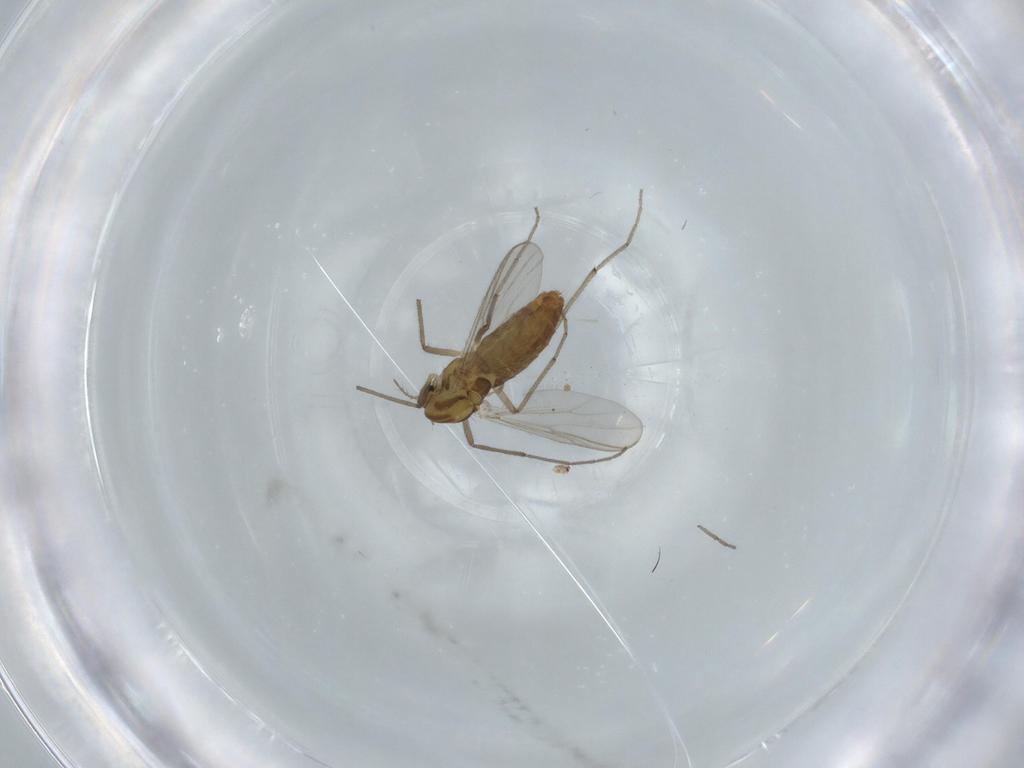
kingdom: Animalia
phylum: Arthropoda
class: Insecta
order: Diptera
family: Chironomidae
